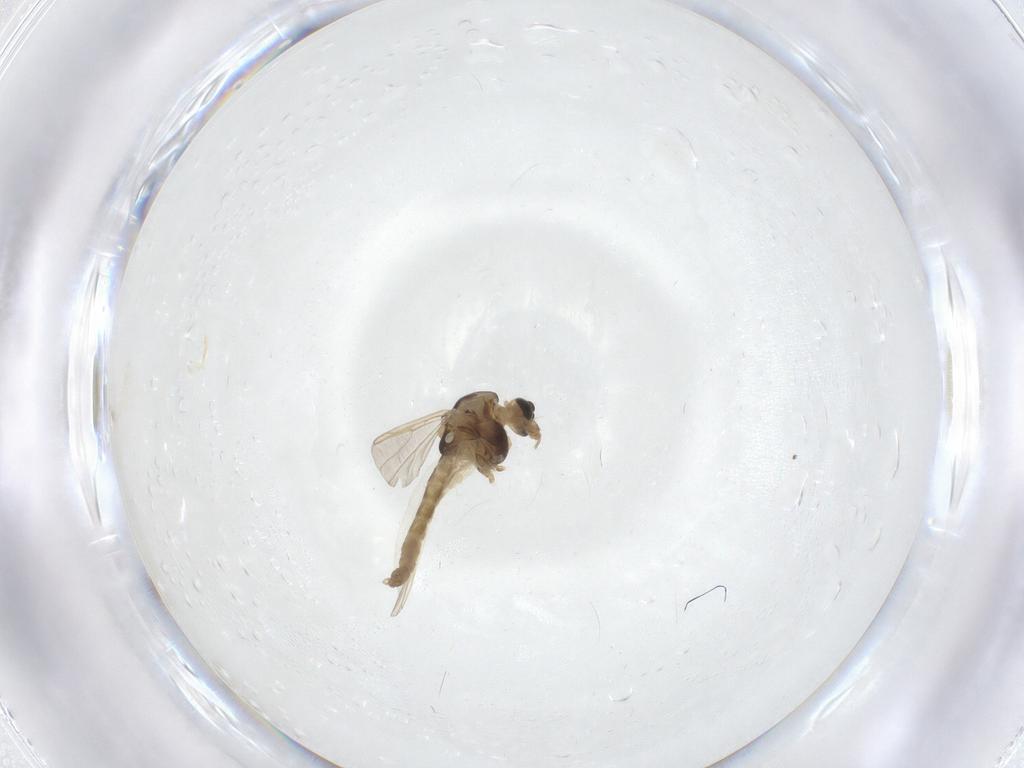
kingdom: Animalia
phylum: Arthropoda
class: Insecta
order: Diptera
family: Chironomidae
